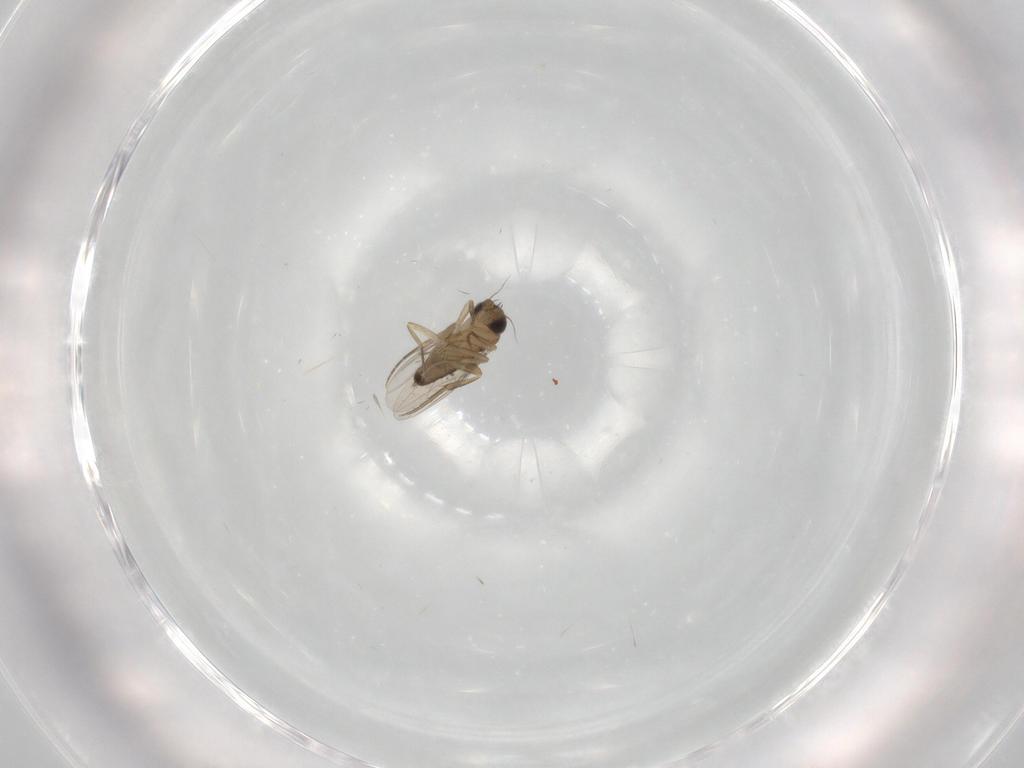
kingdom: Animalia
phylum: Arthropoda
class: Insecta
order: Diptera
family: Phoridae
